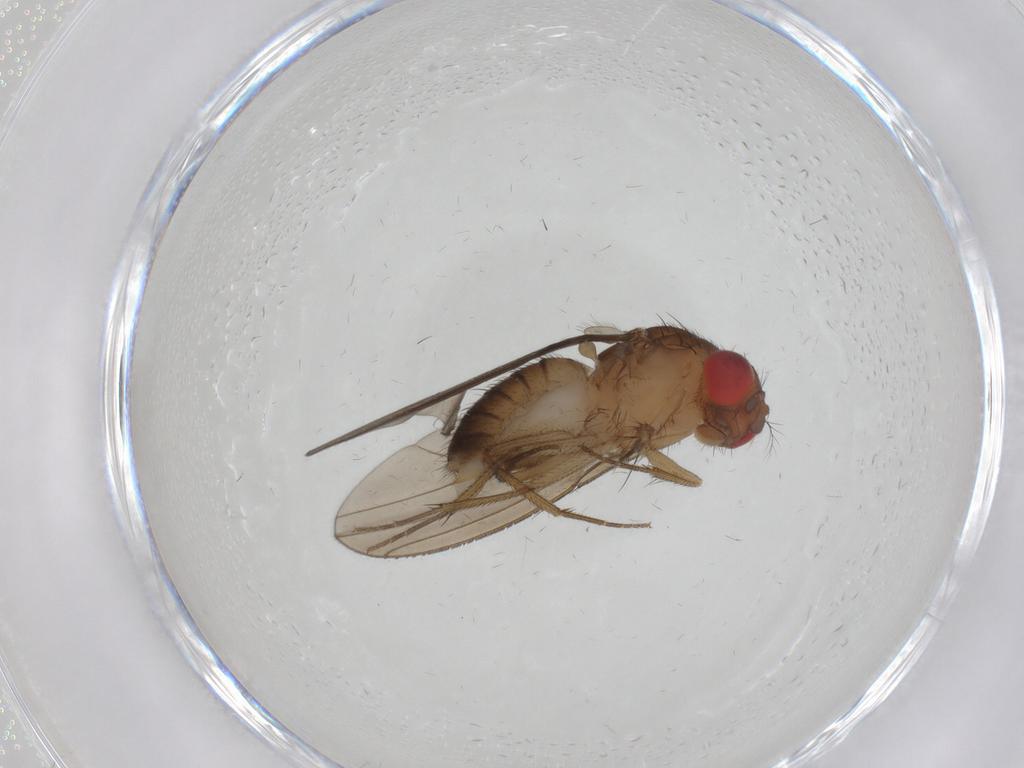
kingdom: Animalia
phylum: Arthropoda
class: Insecta
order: Diptera
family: Drosophilidae
